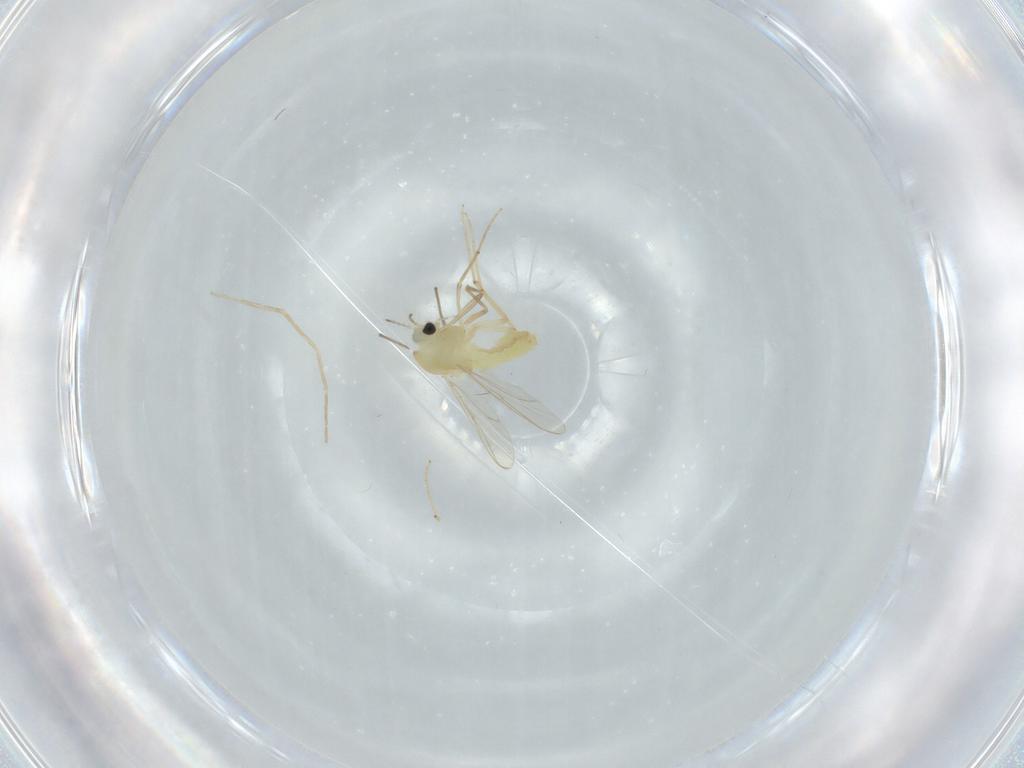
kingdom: Animalia
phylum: Arthropoda
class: Insecta
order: Diptera
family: Chironomidae
